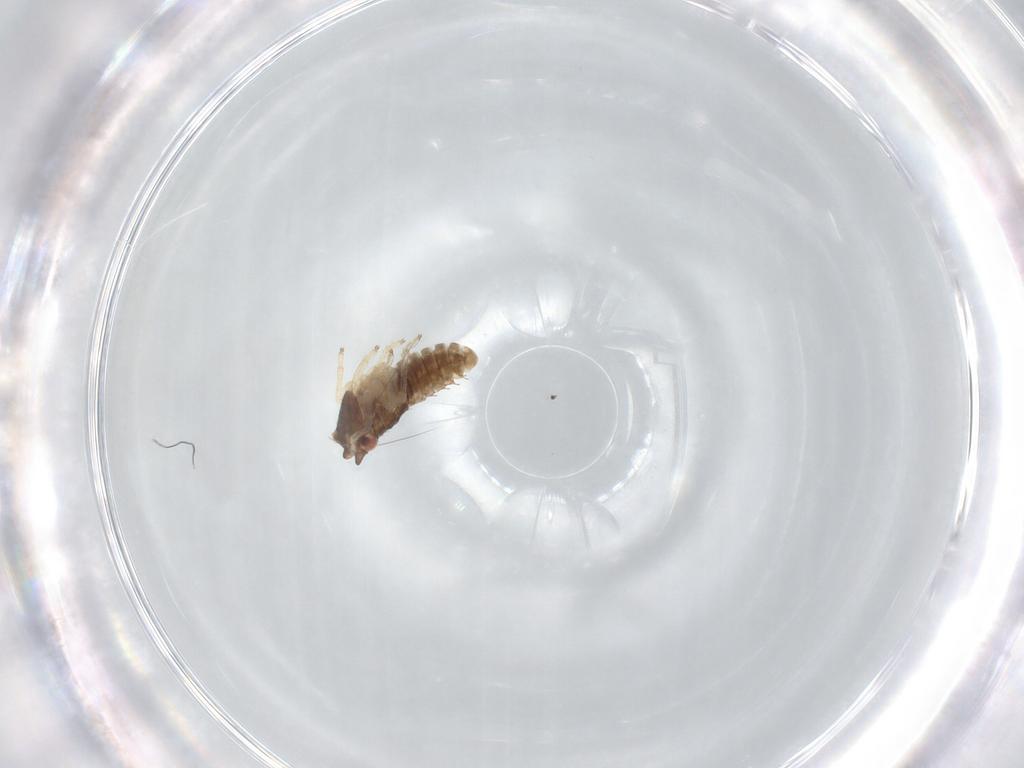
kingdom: Animalia
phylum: Arthropoda
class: Insecta
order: Hemiptera
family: Cicadellidae
